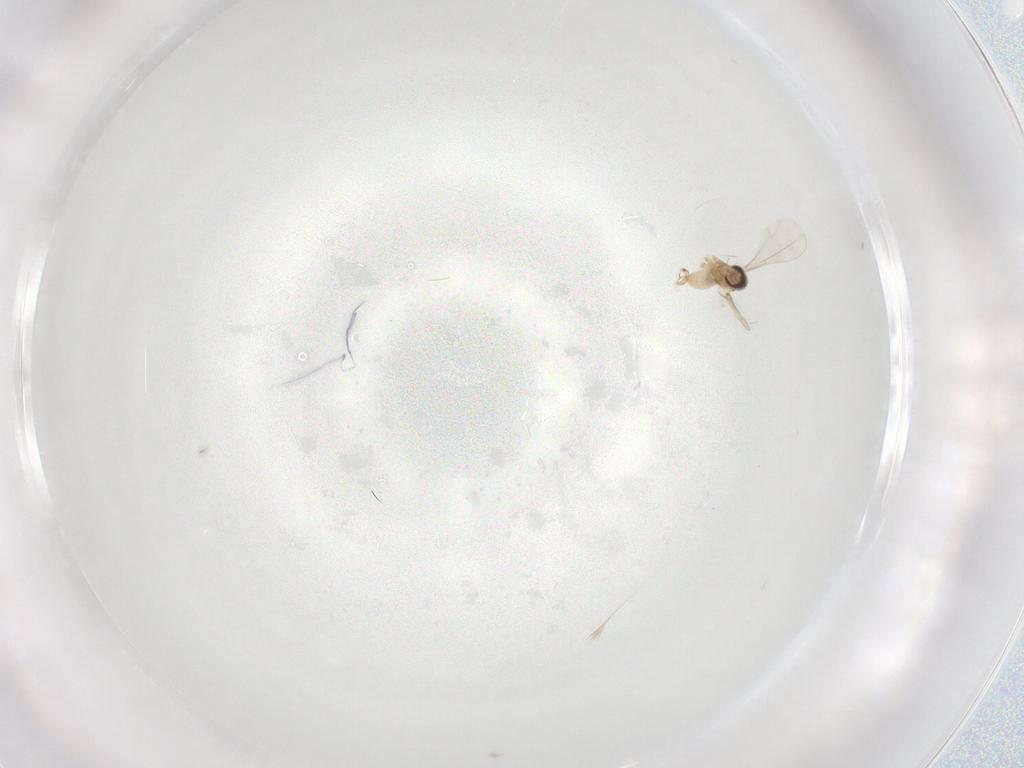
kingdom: Animalia
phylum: Arthropoda
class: Insecta
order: Diptera
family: Cecidomyiidae
